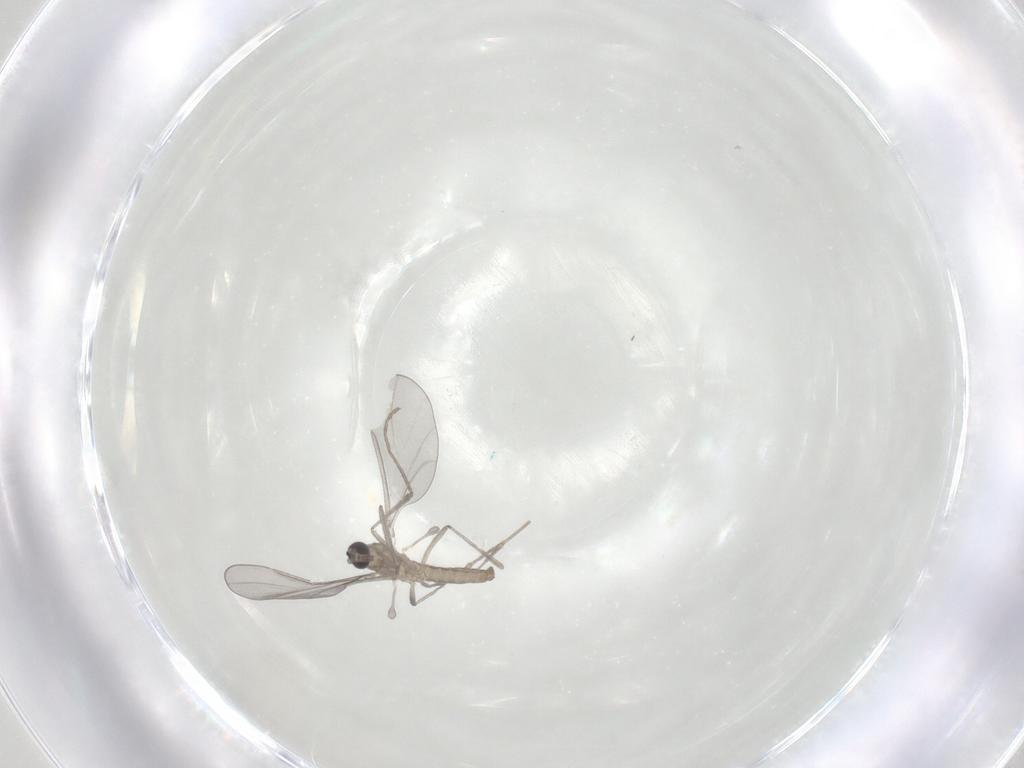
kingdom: Animalia
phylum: Arthropoda
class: Insecta
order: Diptera
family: Cecidomyiidae
